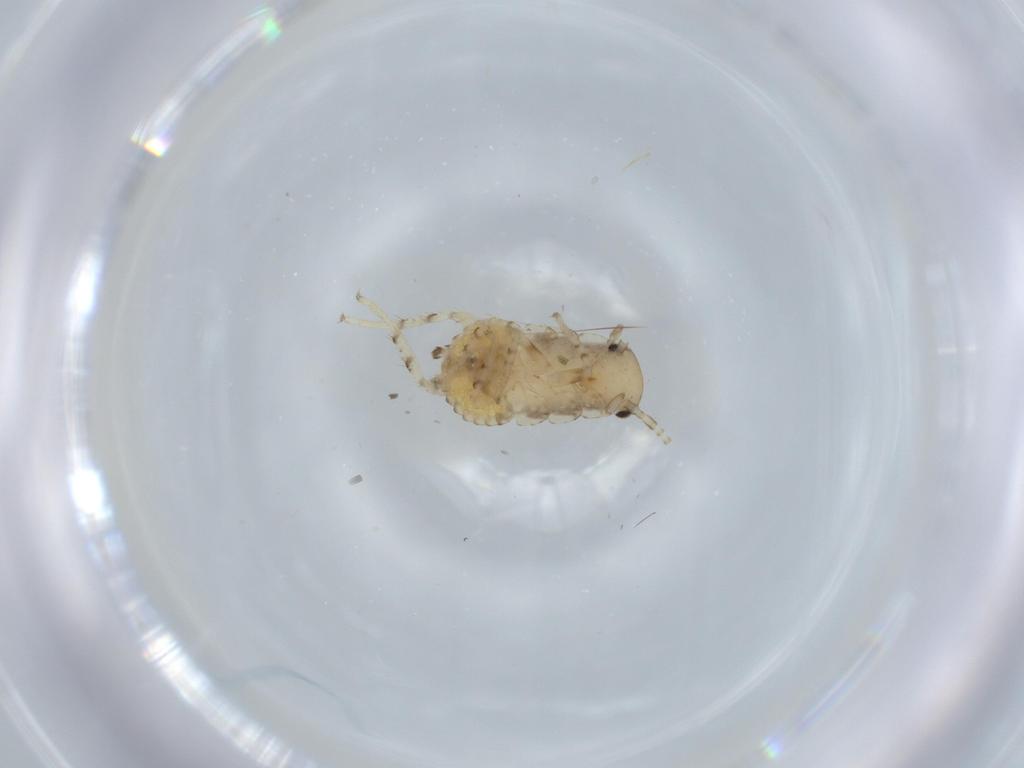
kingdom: Animalia
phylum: Arthropoda
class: Insecta
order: Blattodea
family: Ectobiidae
